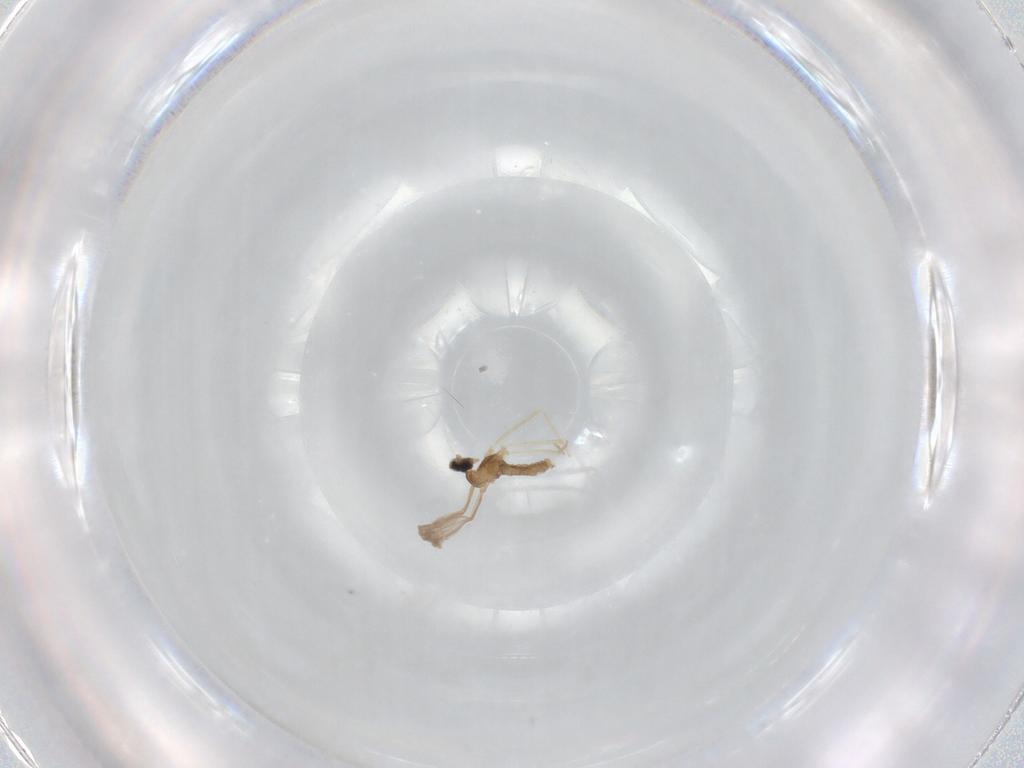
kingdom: Animalia
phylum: Arthropoda
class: Insecta
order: Diptera
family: Cecidomyiidae
